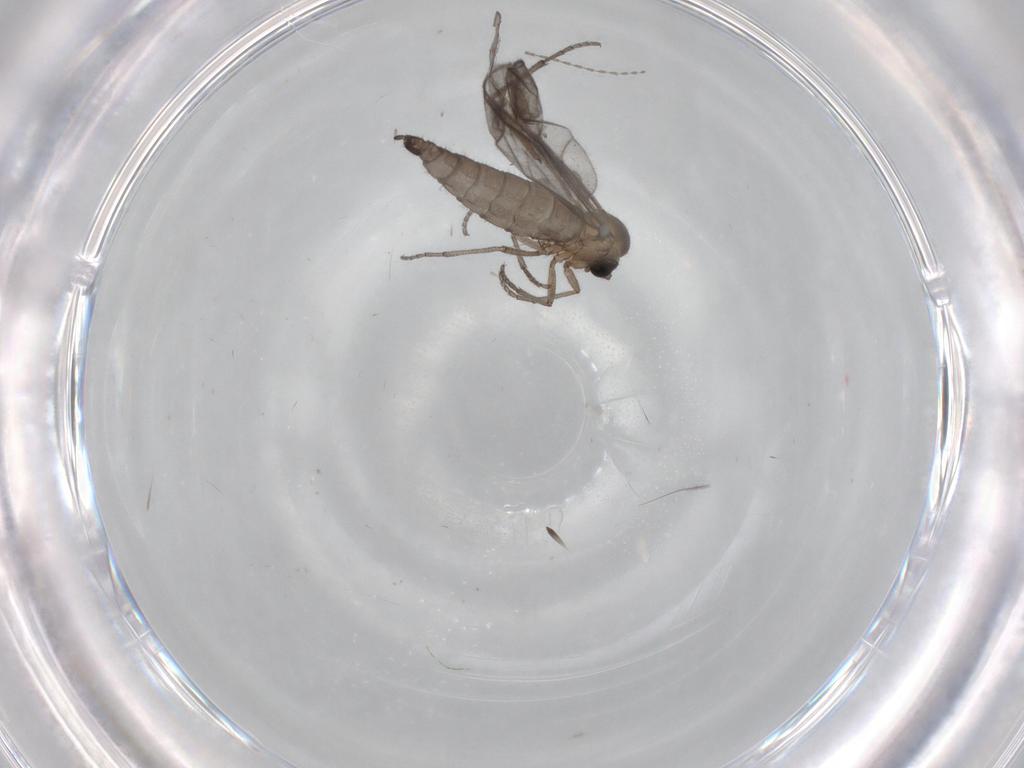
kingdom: Animalia
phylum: Arthropoda
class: Insecta
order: Diptera
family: Sciaridae
